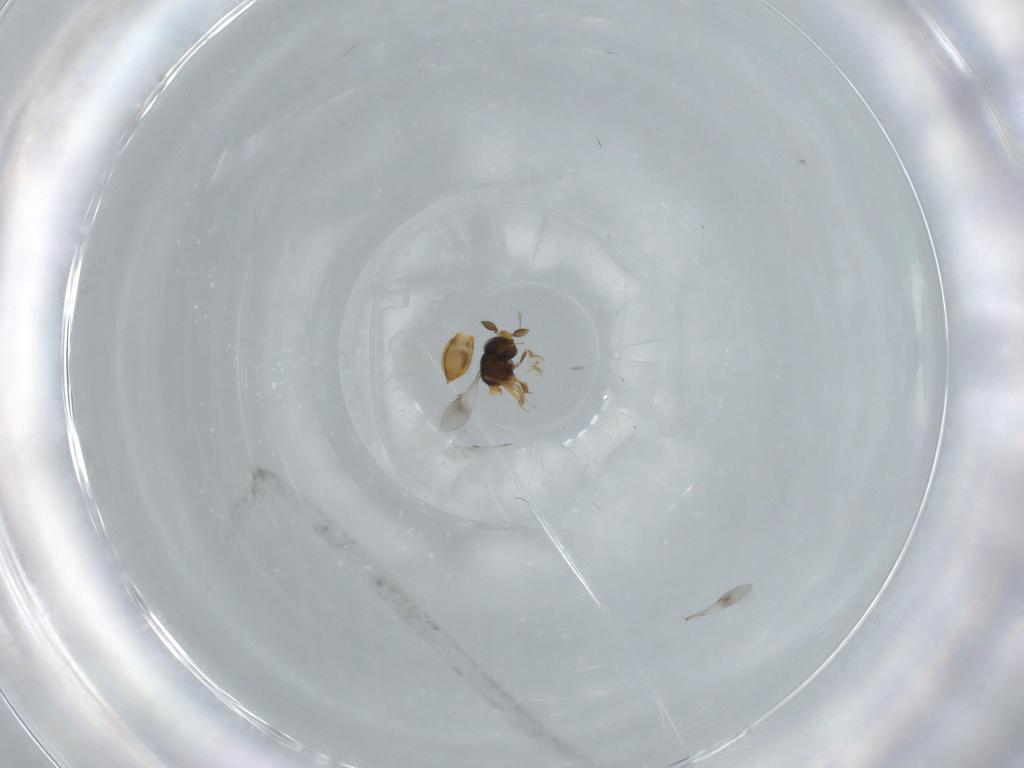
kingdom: Animalia
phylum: Arthropoda
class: Insecta
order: Hymenoptera
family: Scelionidae
